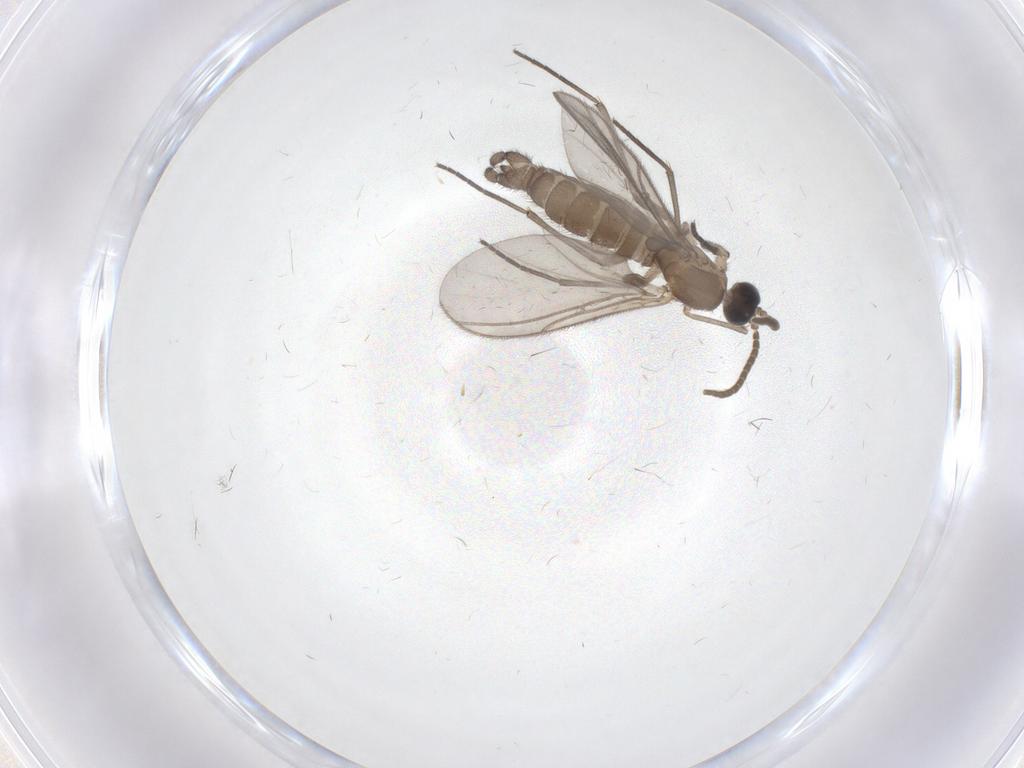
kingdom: Animalia
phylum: Arthropoda
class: Insecta
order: Diptera
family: Psychodidae
